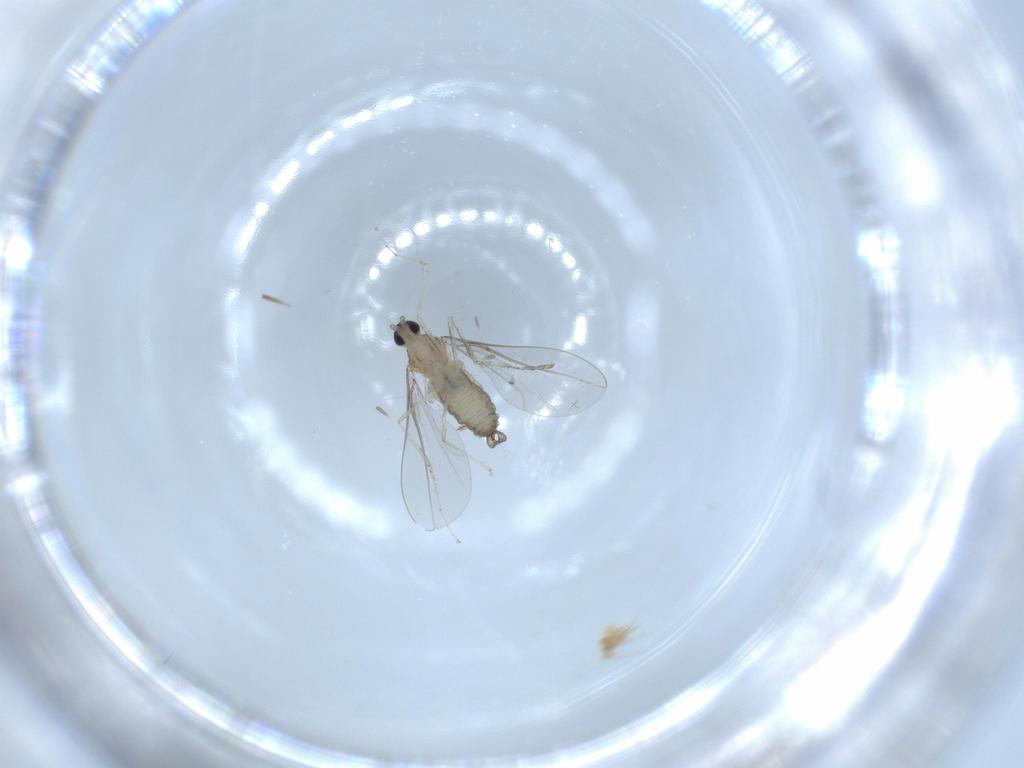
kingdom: Animalia
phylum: Arthropoda
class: Insecta
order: Diptera
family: Cecidomyiidae
